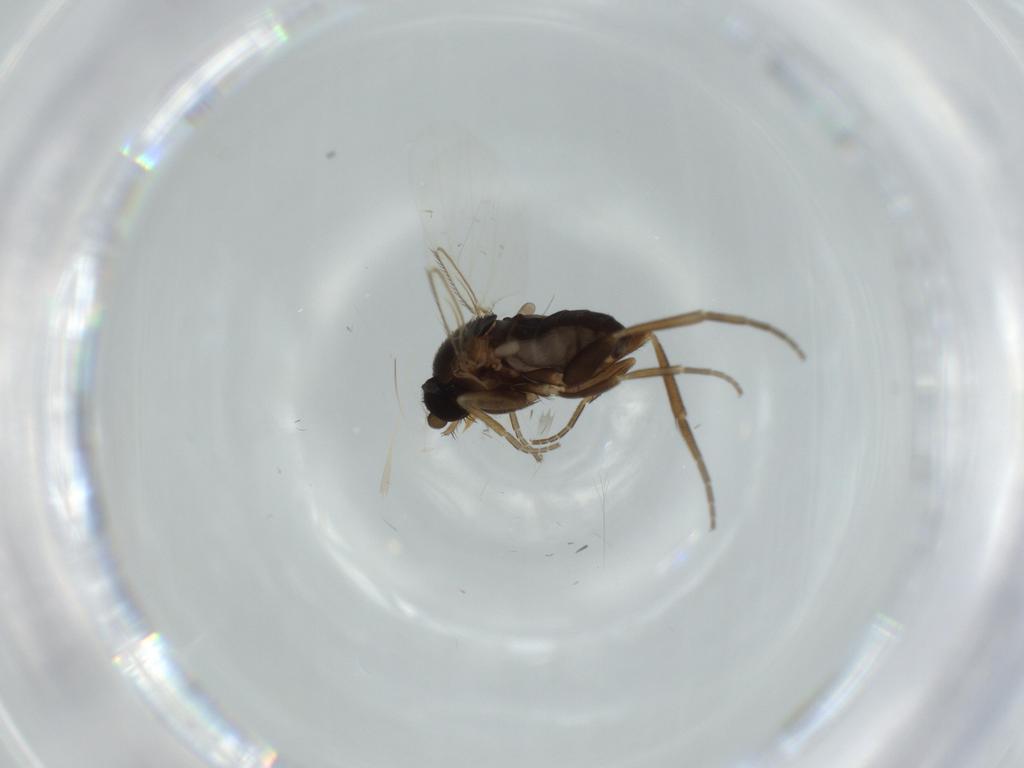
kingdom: Animalia
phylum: Arthropoda
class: Insecta
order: Diptera
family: Phoridae
